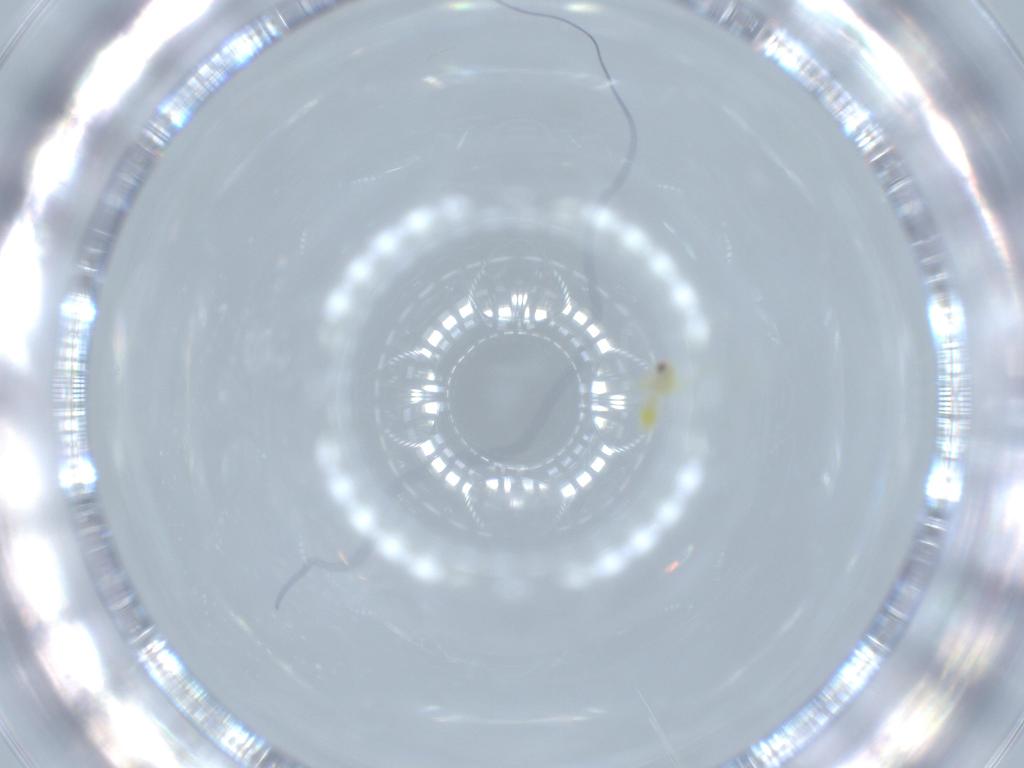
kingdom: Animalia
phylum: Arthropoda
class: Insecta
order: Hemiptera
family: Aleyrodidae
